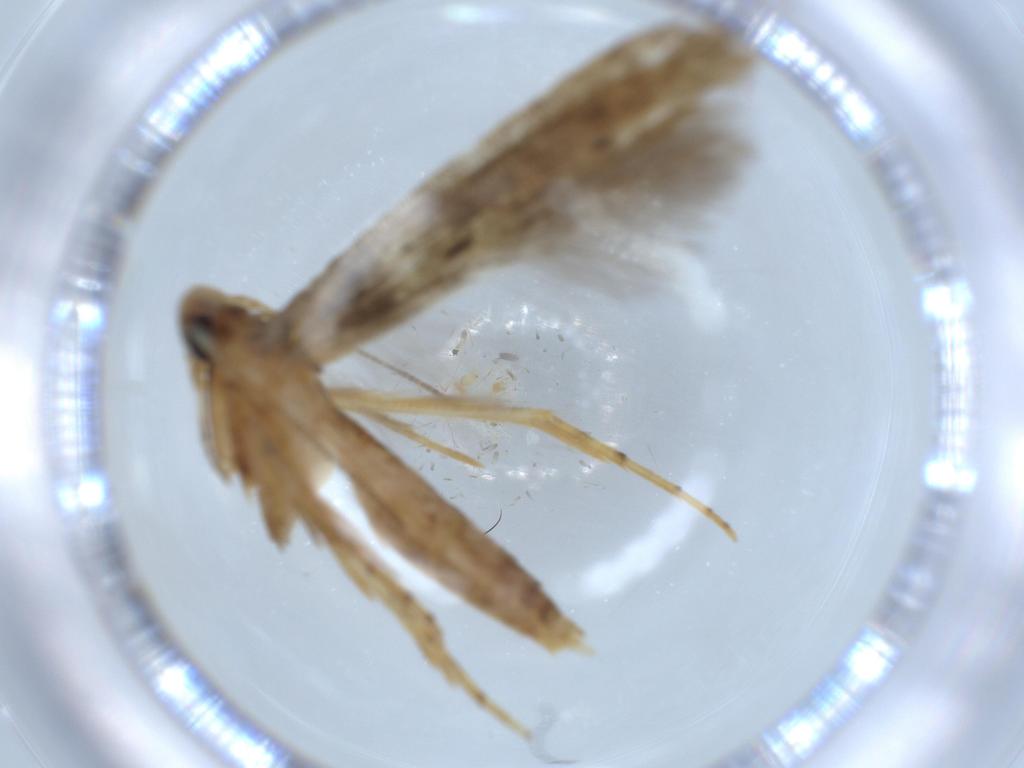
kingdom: Animalia
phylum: Arthropoda
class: Insecta
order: Lepidoptera
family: Heliodinidae
